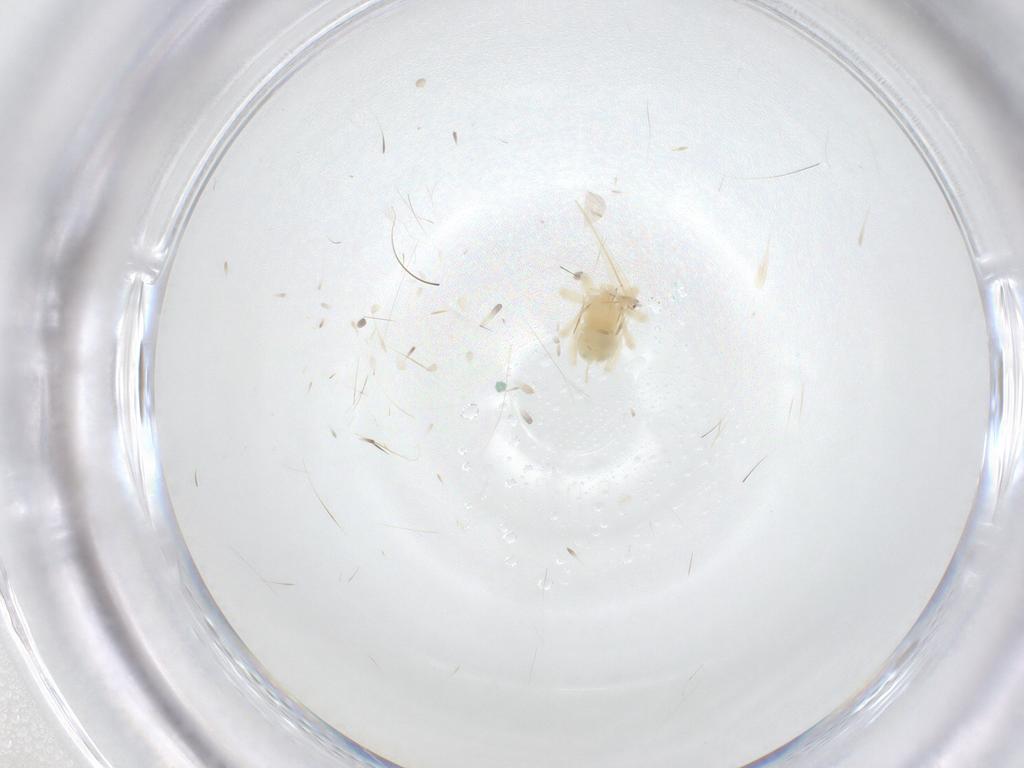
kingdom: Animalia
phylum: Arthropoda
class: Arachnida
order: Trombidiformes
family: Anystidae
